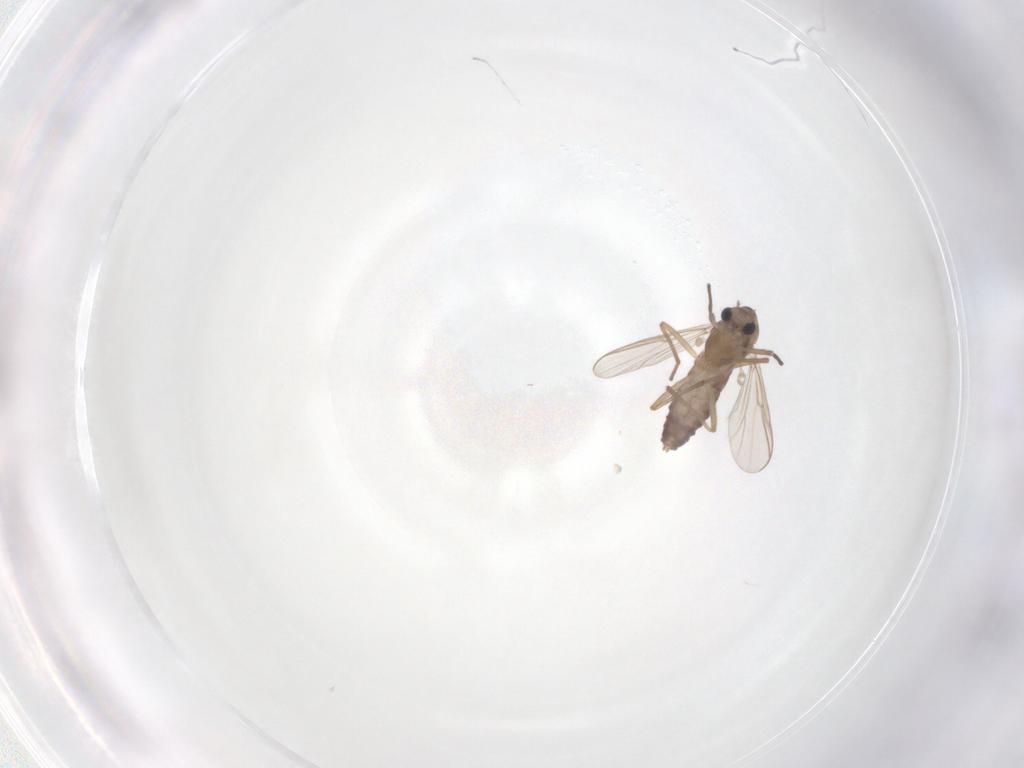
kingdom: Animalia
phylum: Arthropoda
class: Insecta
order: Diptera
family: Chironomidae
